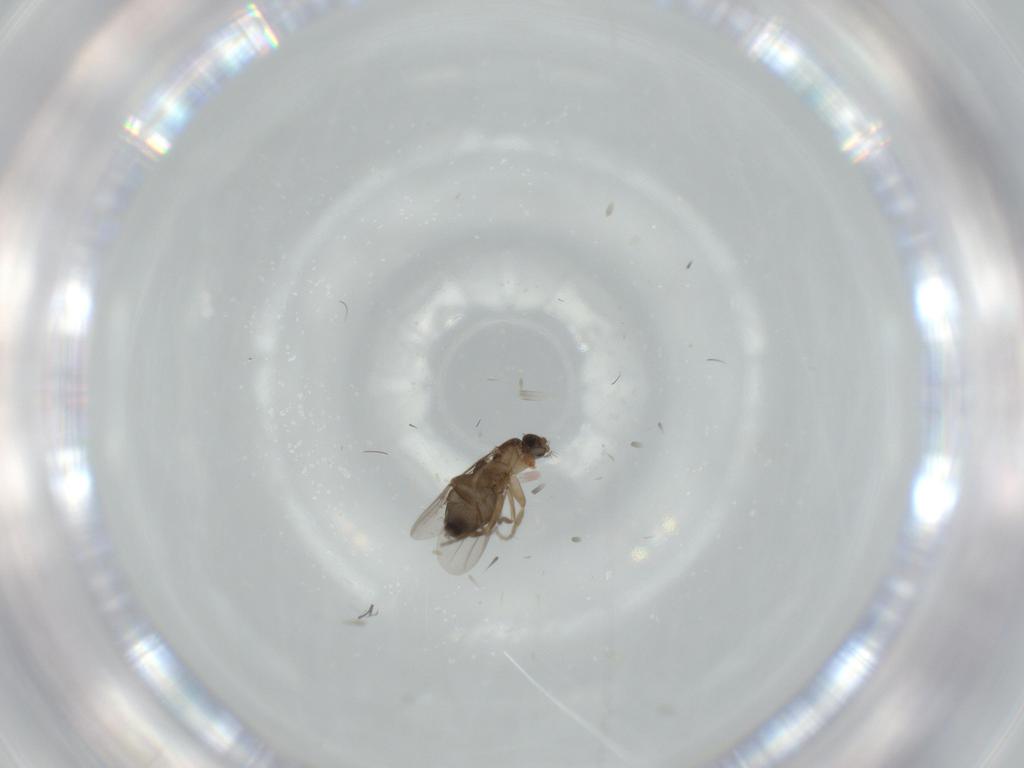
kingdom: Animalia
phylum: Arthropoda
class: Insecta
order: Diptera
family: Phoridae
